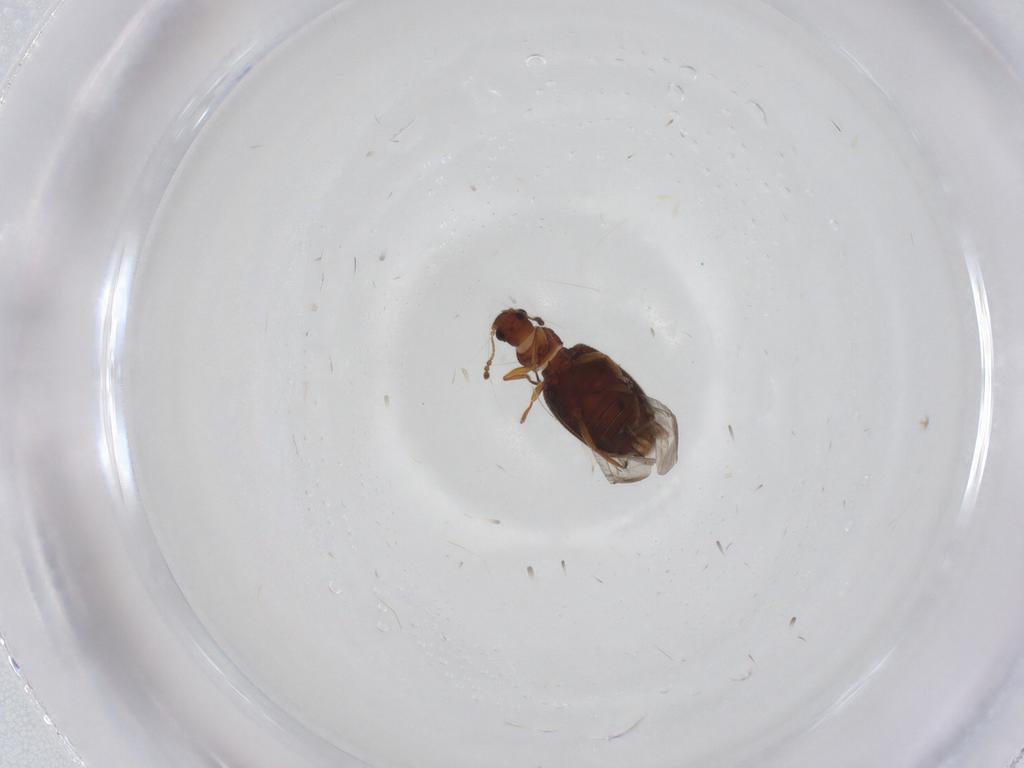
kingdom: Animalia
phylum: Arthropoda
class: Insecta
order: Coleoptera
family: Latridiidae
